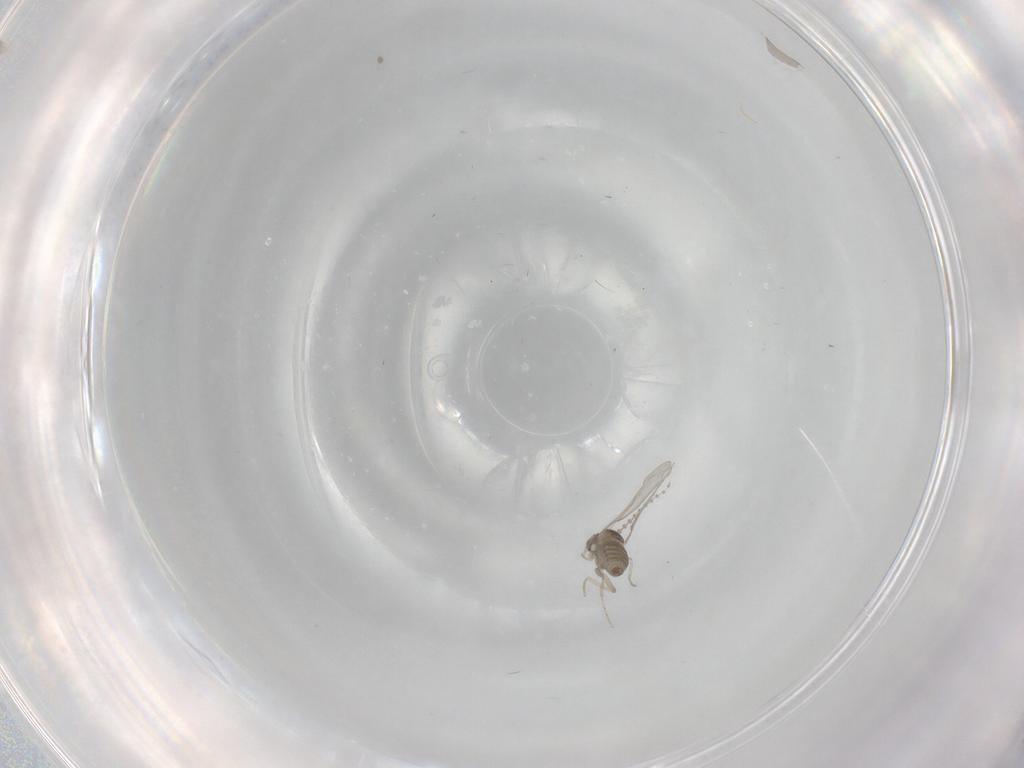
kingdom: Animalia
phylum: Arthropoda
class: Insecta
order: Diptera
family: Cecidomyiidae
